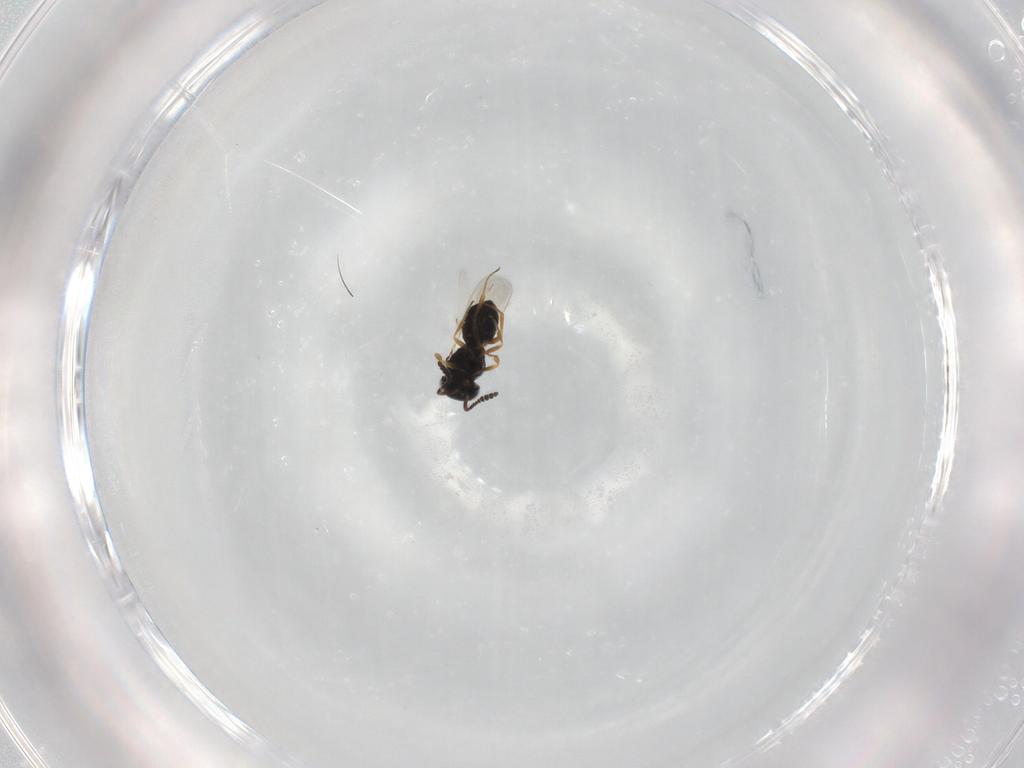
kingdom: Animalia
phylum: Arthropoda
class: Insecta
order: Hymenoptera
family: Scelionidae
